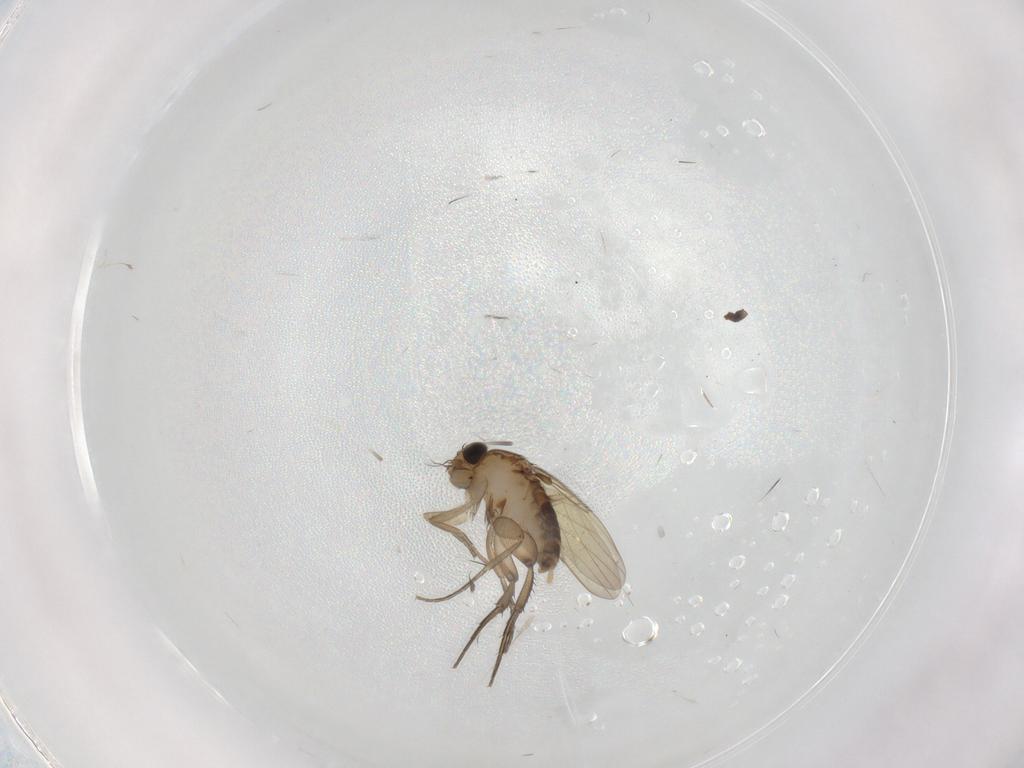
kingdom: Animalia
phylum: Arthropoda
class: Insecta
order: Diptera
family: Phoridae
